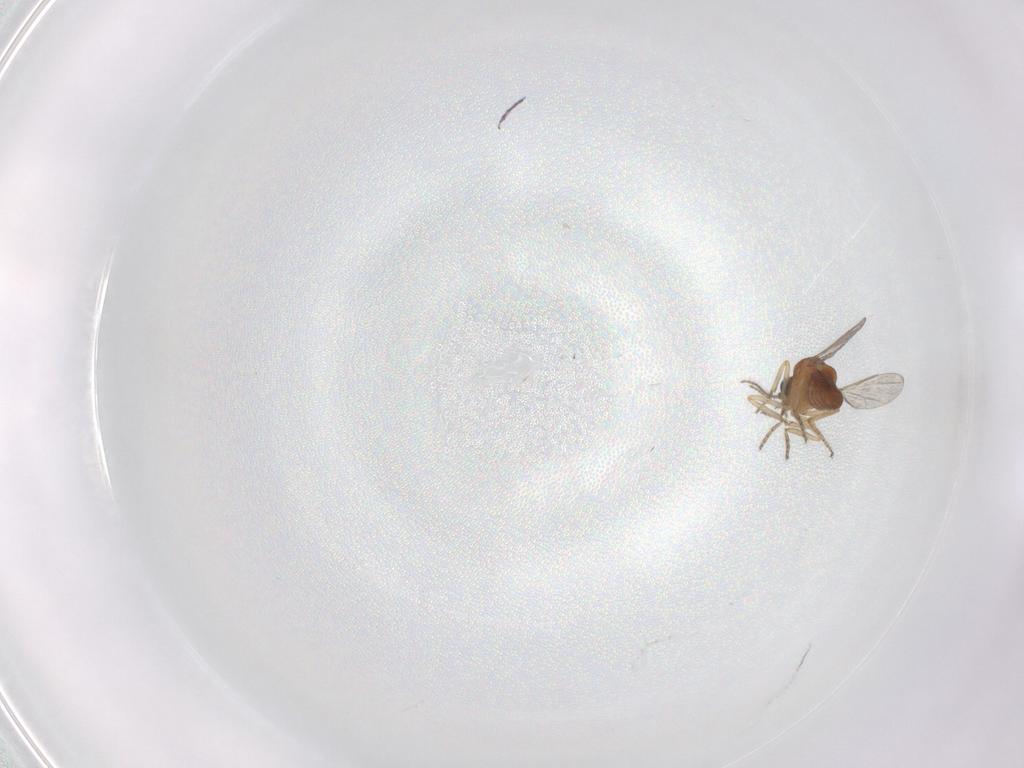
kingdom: Animalia
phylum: Arthropoda
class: Insecta
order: Diptera
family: Ceratopogonidae
